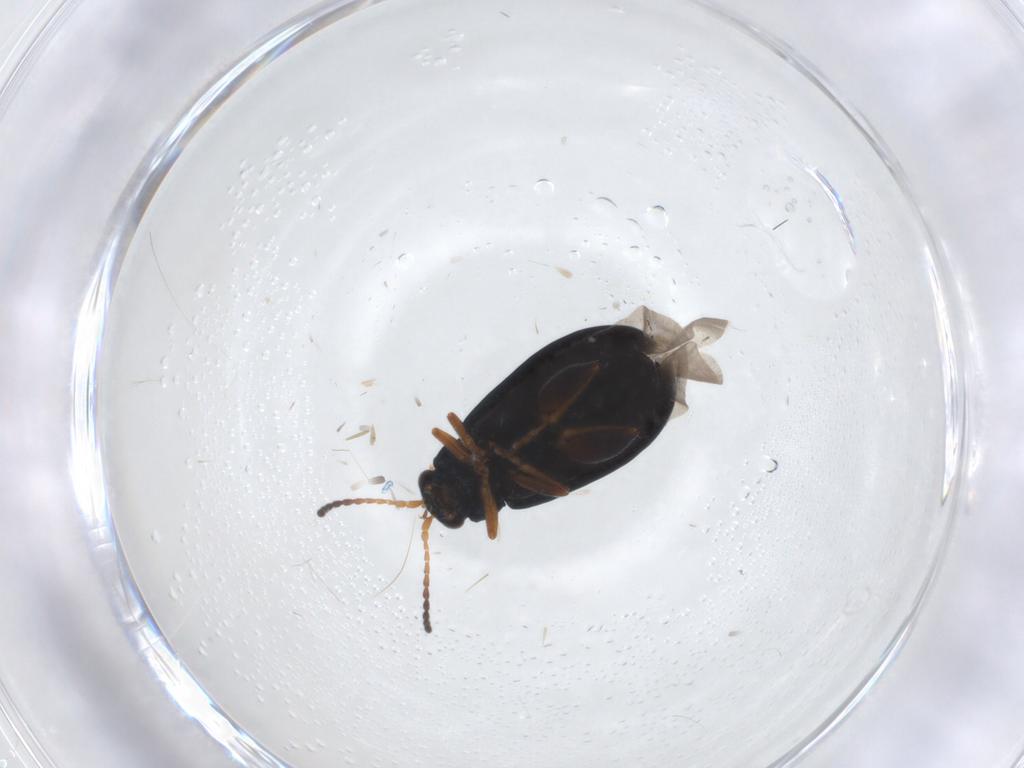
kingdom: Animalia
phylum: Arthropoda
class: Insecta
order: Coleoptera
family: Chrysomelidae
